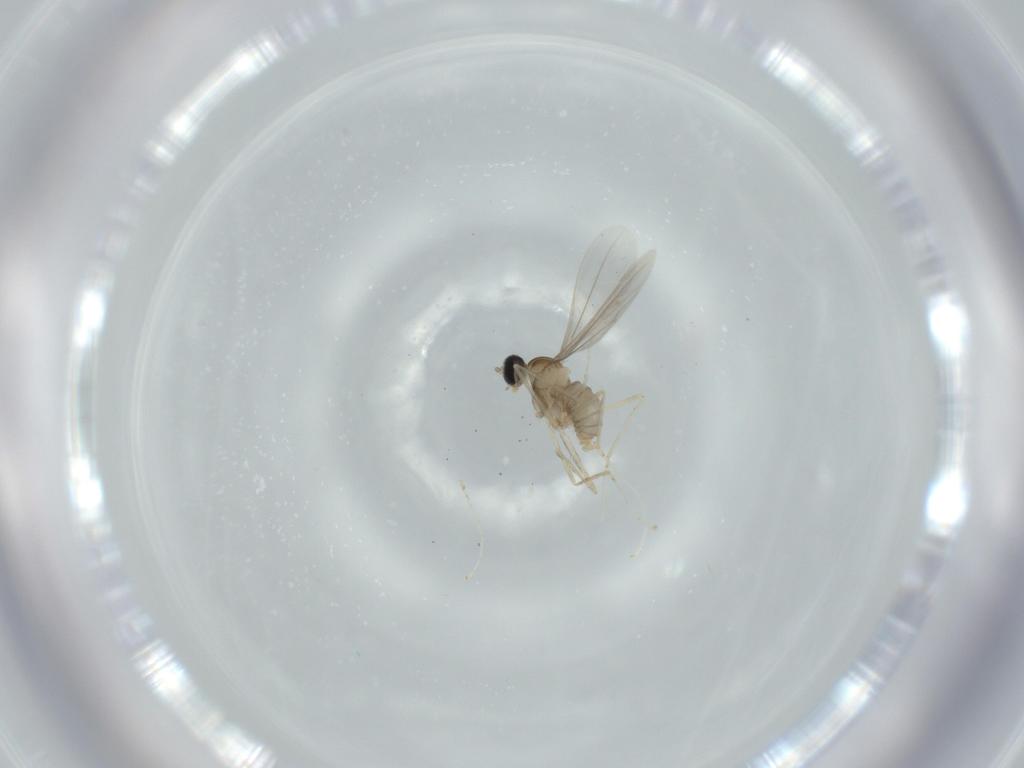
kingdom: Animalia
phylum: Arthropoda
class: Insecta
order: Diptera
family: Cecidomyiidae
